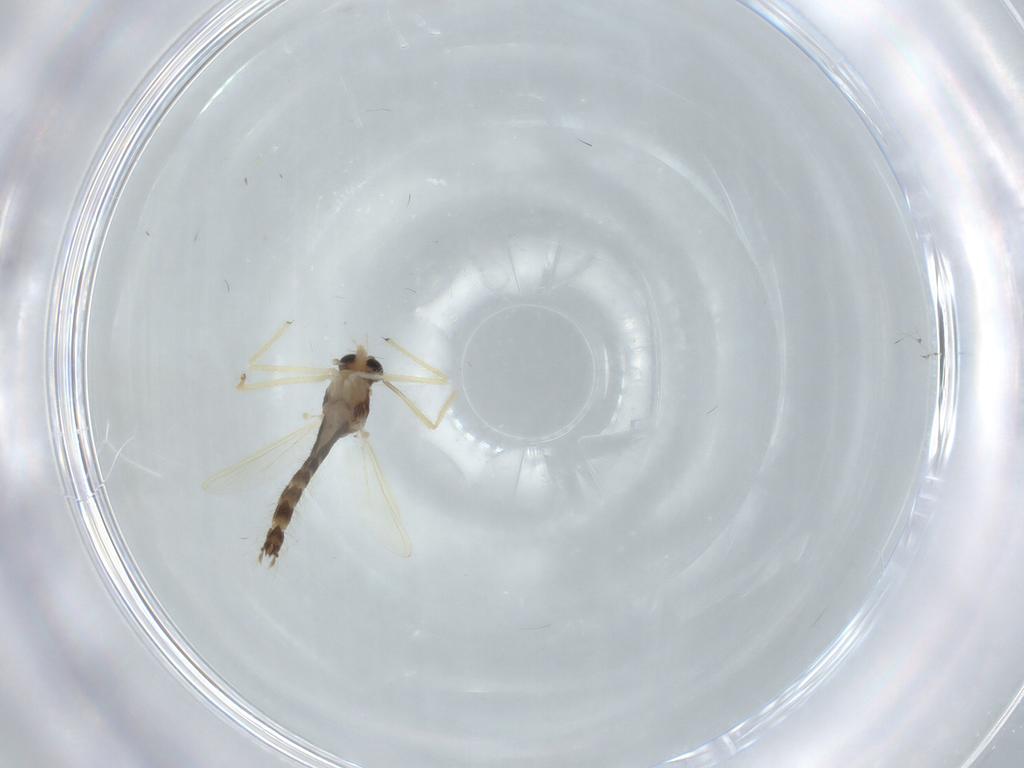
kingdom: Animalia
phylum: Arthropoda
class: Insecta
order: Diptera
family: Chironomidae
